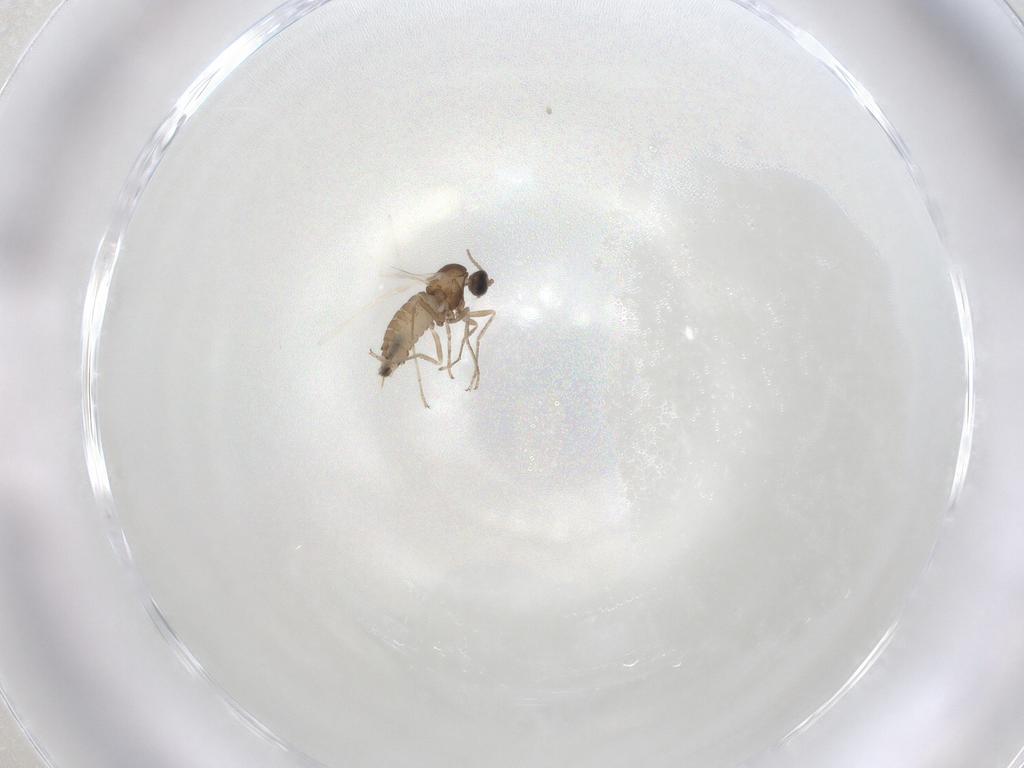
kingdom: Animalia
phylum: Arthropoda
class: Insecta
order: Diptera
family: Cecidomyiidae
